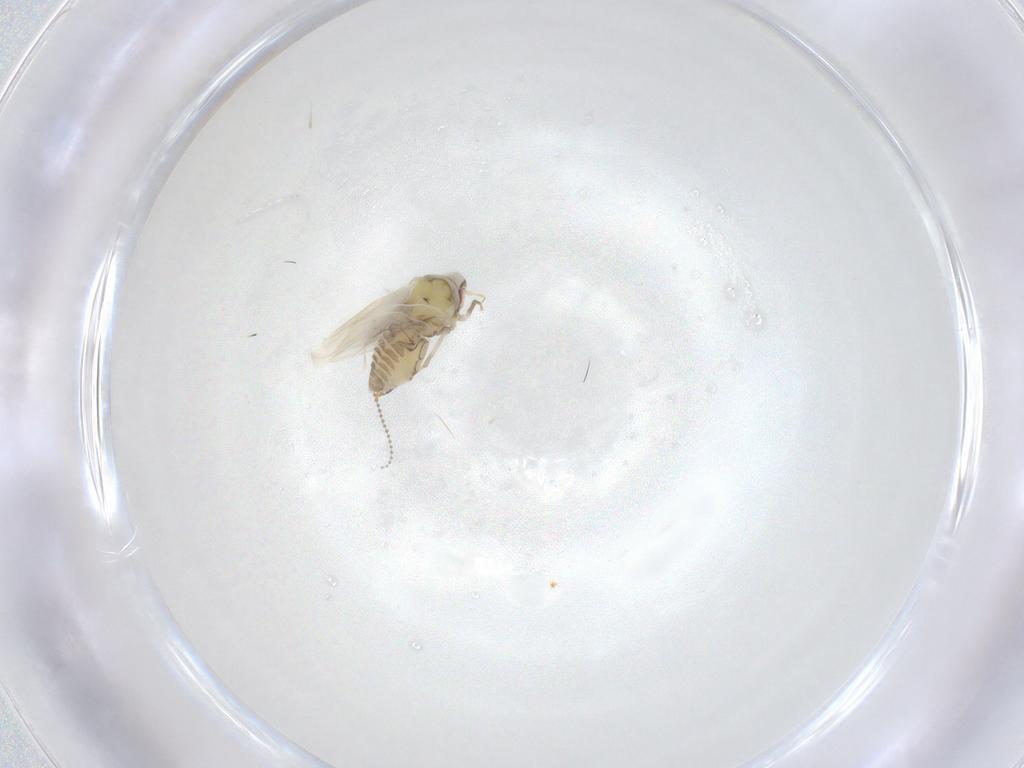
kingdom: Animalia
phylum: Arthropoda
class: Insecta
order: Hemiptera
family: Aleyrodidae
